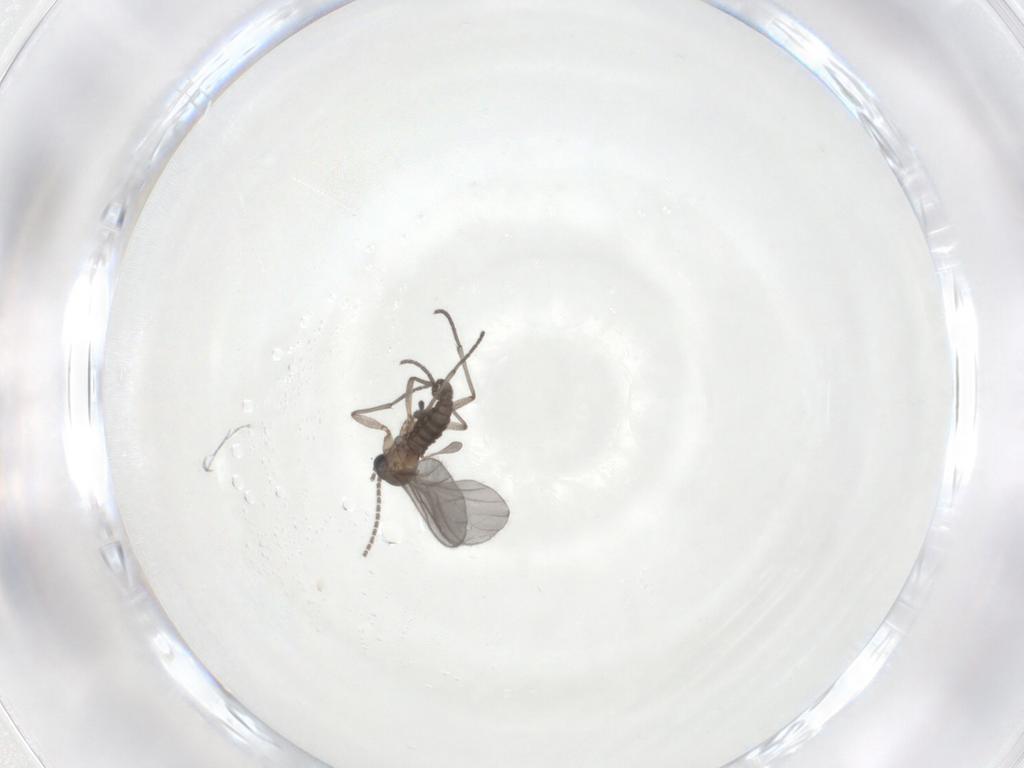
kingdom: Animalia
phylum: Arthropoda
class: Insecta
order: Diptera
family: Sciaridae
